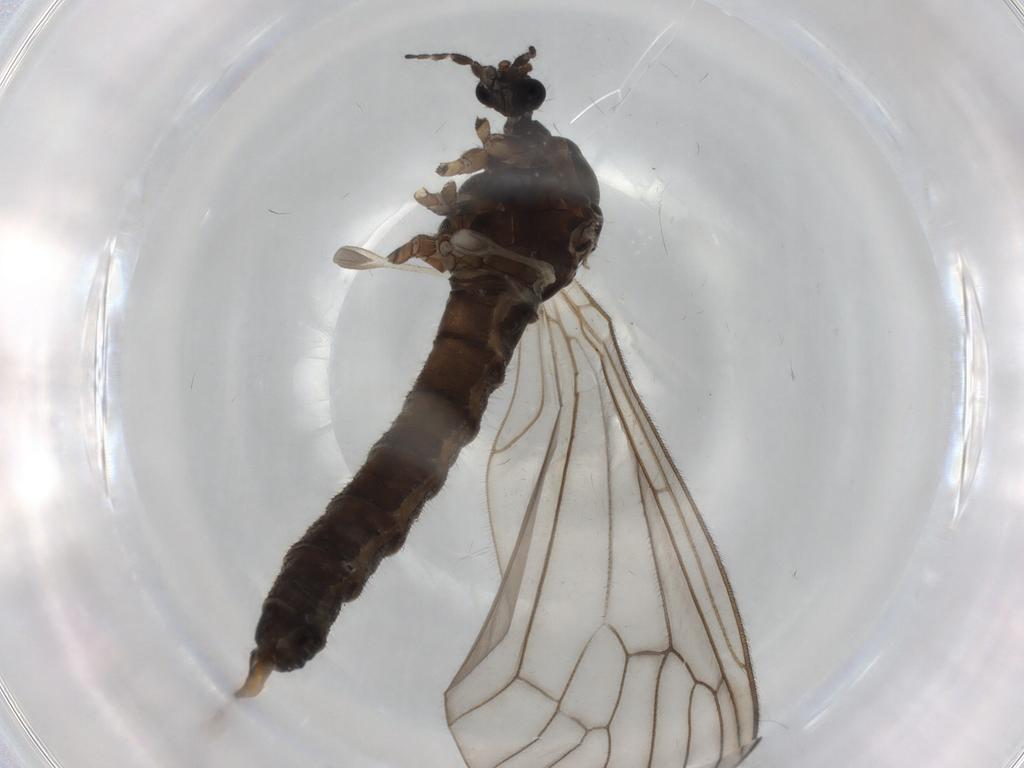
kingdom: Animalia
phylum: Arthropoda
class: Insecta
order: Diptera
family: Trichoceridae
